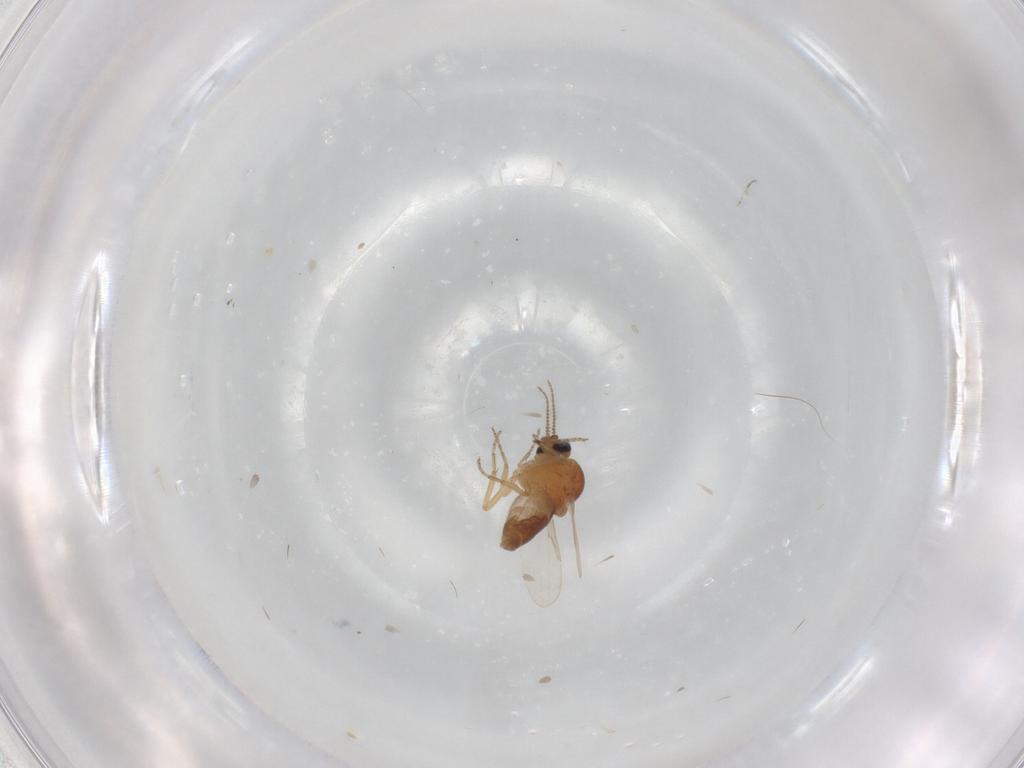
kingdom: Animalia
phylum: Arthropoda
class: Insecta
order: Diptera
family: Ceratopogonidae
